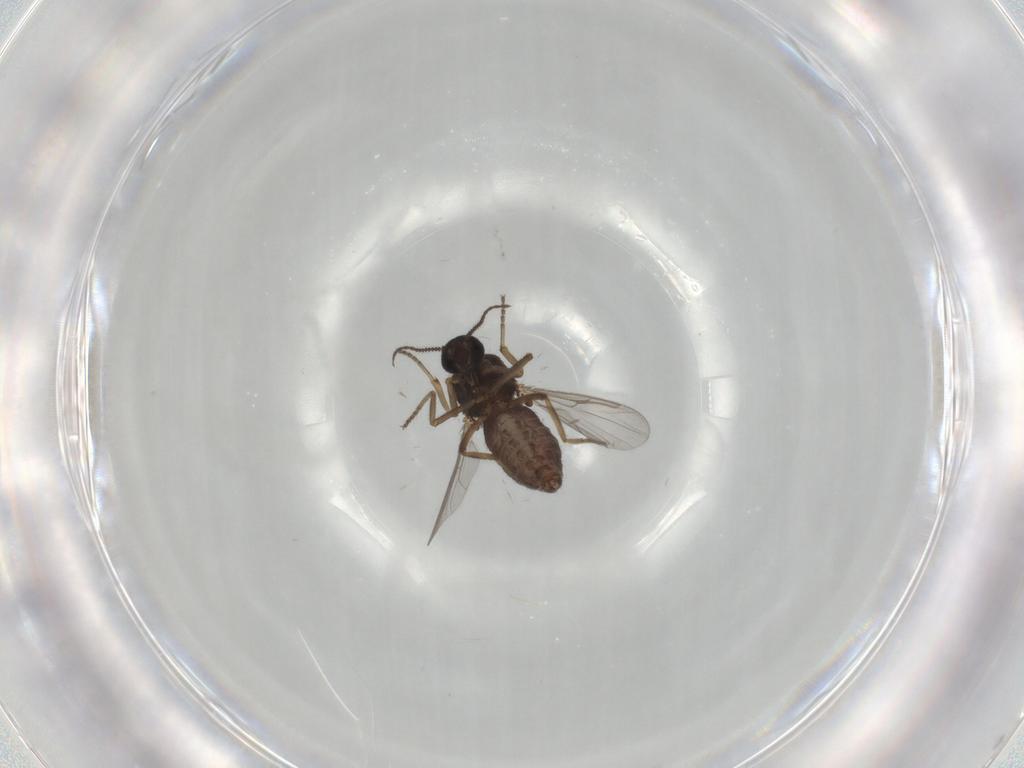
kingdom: Animalia
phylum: Arthropoda
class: Insecta
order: Diptera
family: Ceratopogonidae
